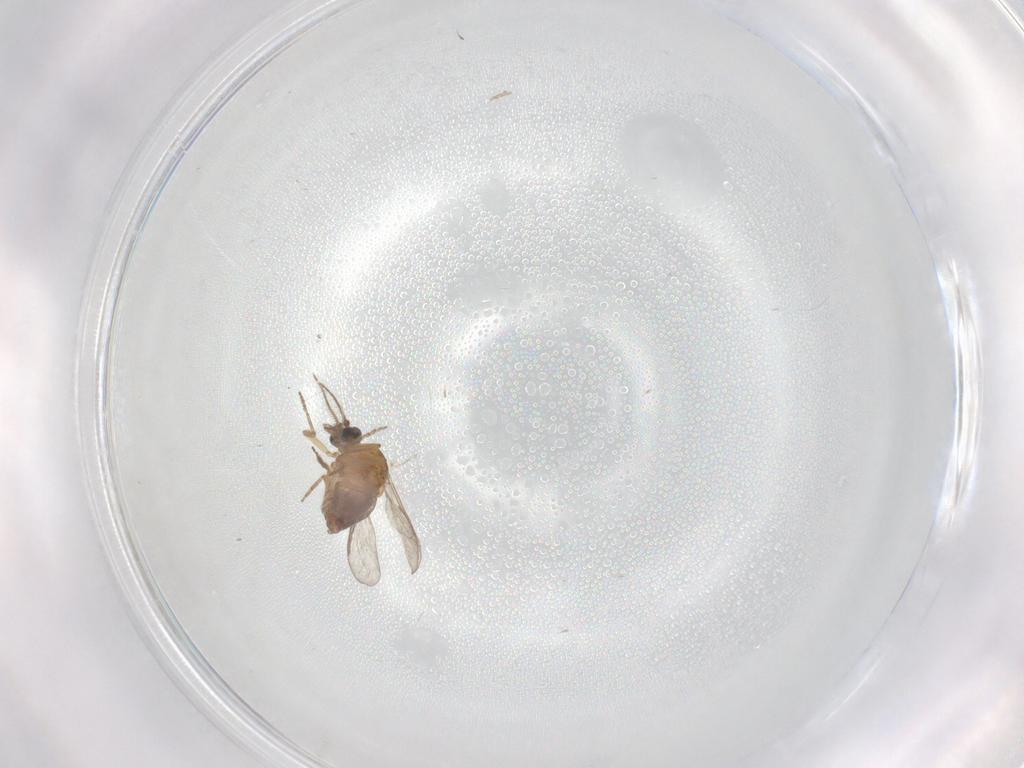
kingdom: Animalia
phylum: Arthropoda
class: Insecta
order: Diptera
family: Chironomidae
